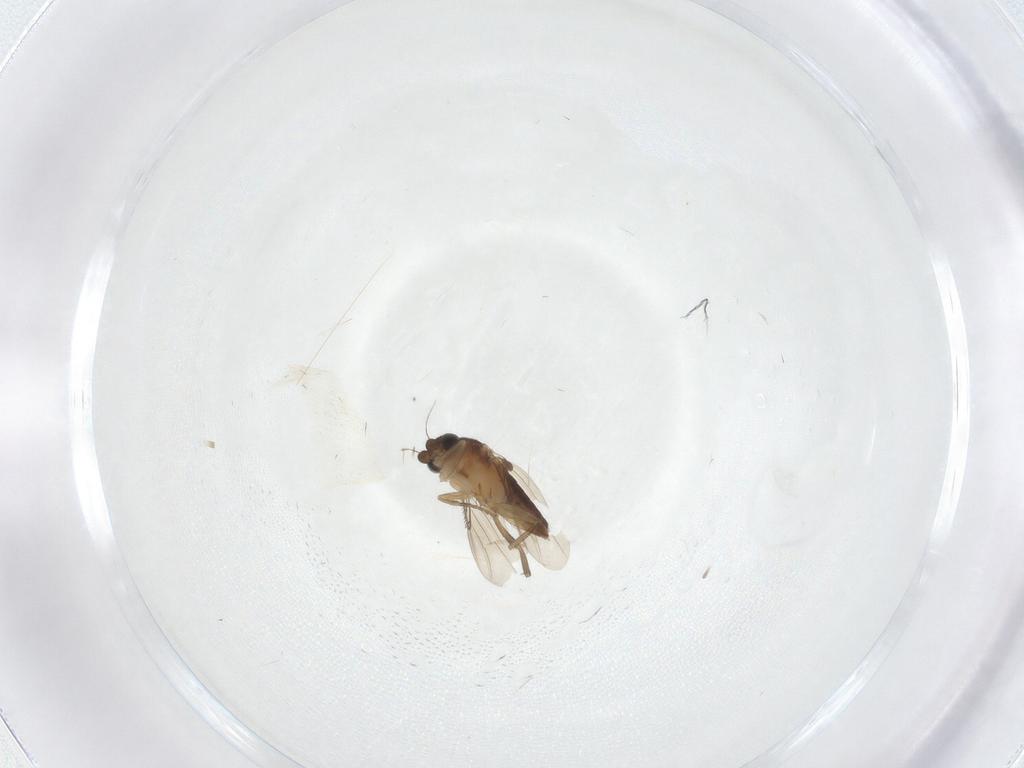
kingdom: Animalia
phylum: Arthropoda
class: Insecta
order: Diptera
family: Phoridae
